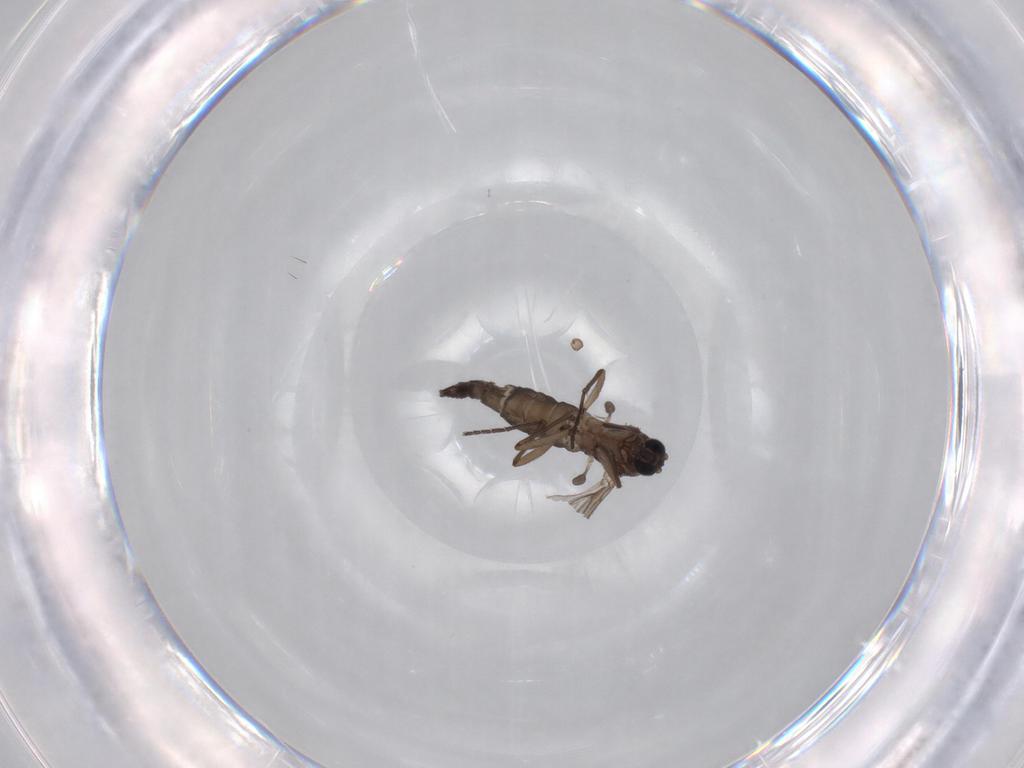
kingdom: Animalia
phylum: Arthropoda
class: Insecta
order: Diptera
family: Sciaridae
